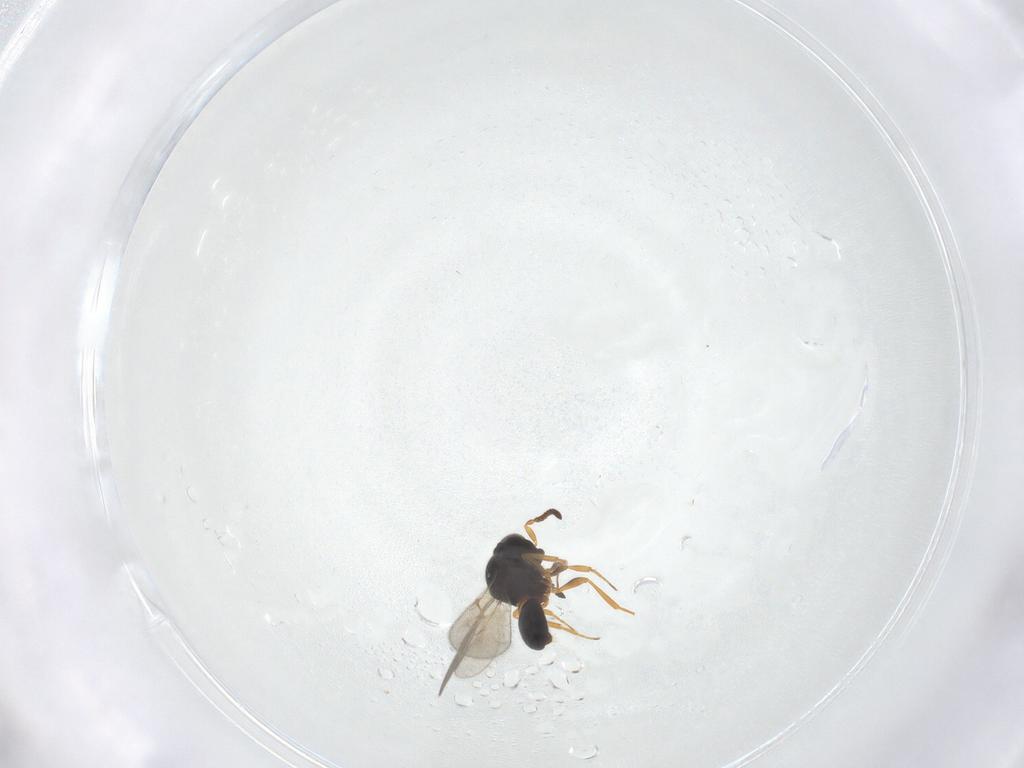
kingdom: Animalia
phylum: Arthropoda
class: Insecta
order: Hymenoptera
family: Scelionidae
